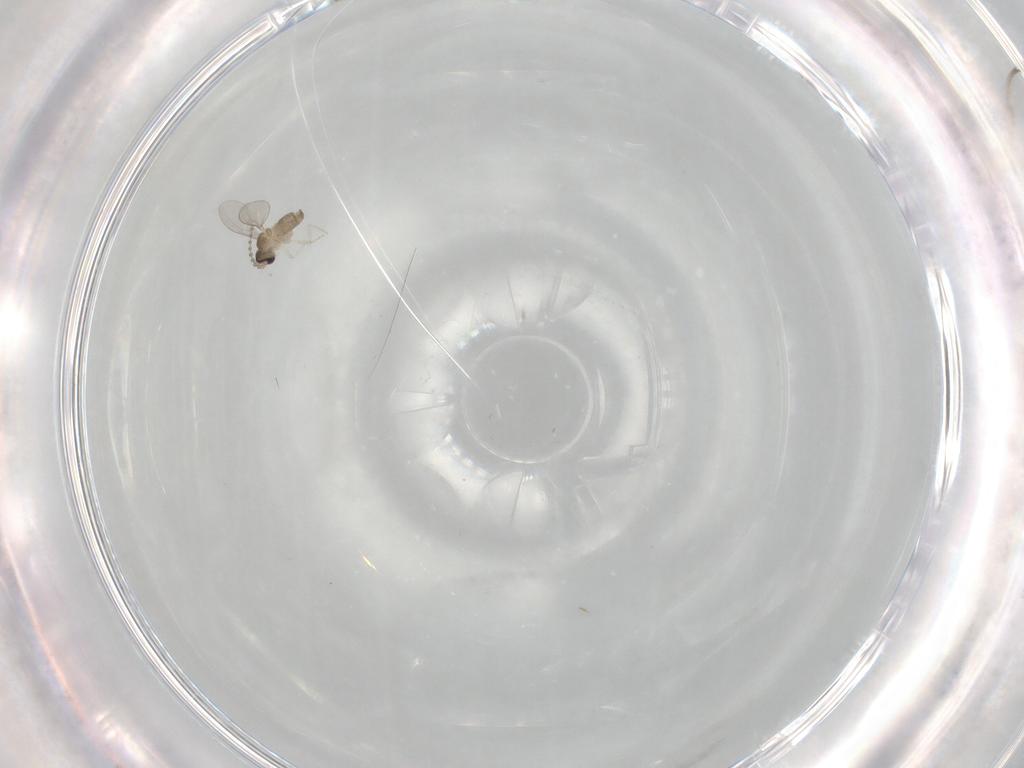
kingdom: Animalia
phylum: Arthropoda
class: Insecta
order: Diptera
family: Cecidomyiidae
